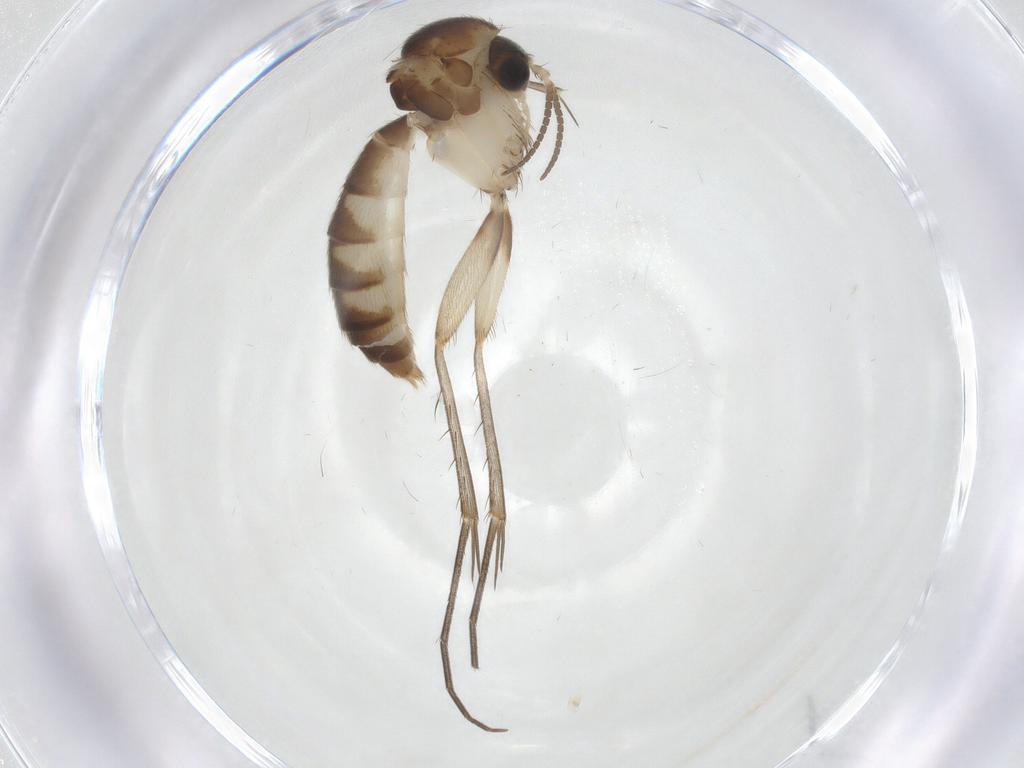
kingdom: Animalia
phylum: Arthropoda
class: Insecta
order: Diptera
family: Mycetophilidae
